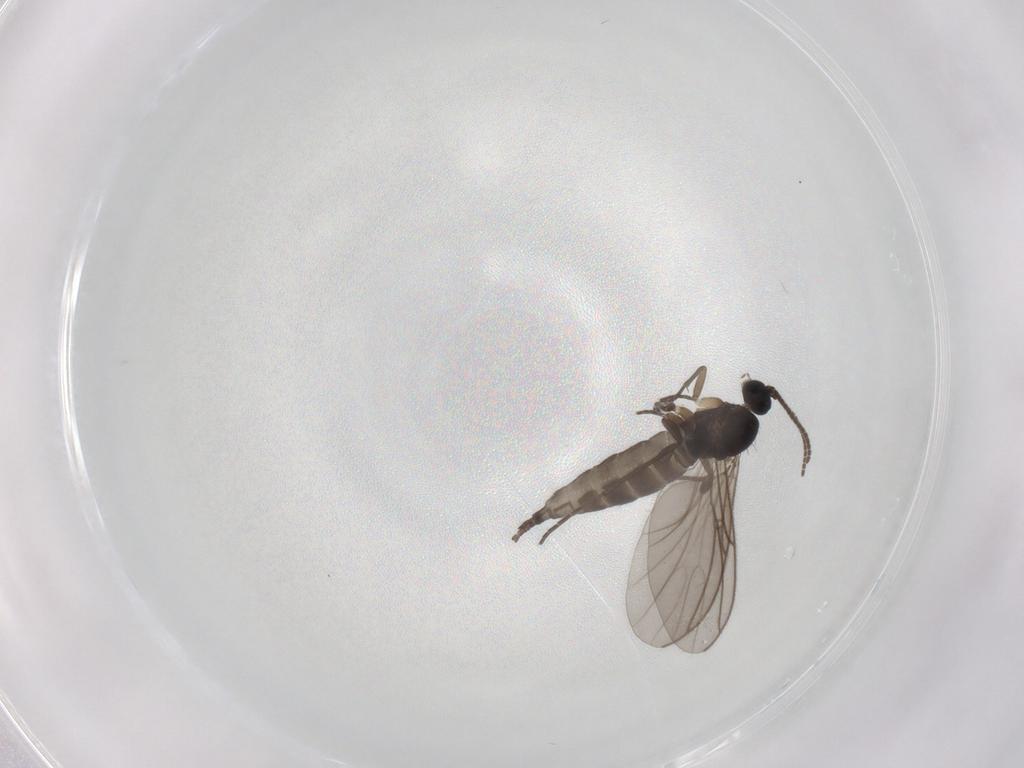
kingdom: Animalia
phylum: Arthropoda
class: Insecta
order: Diptera
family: Sciaridae
